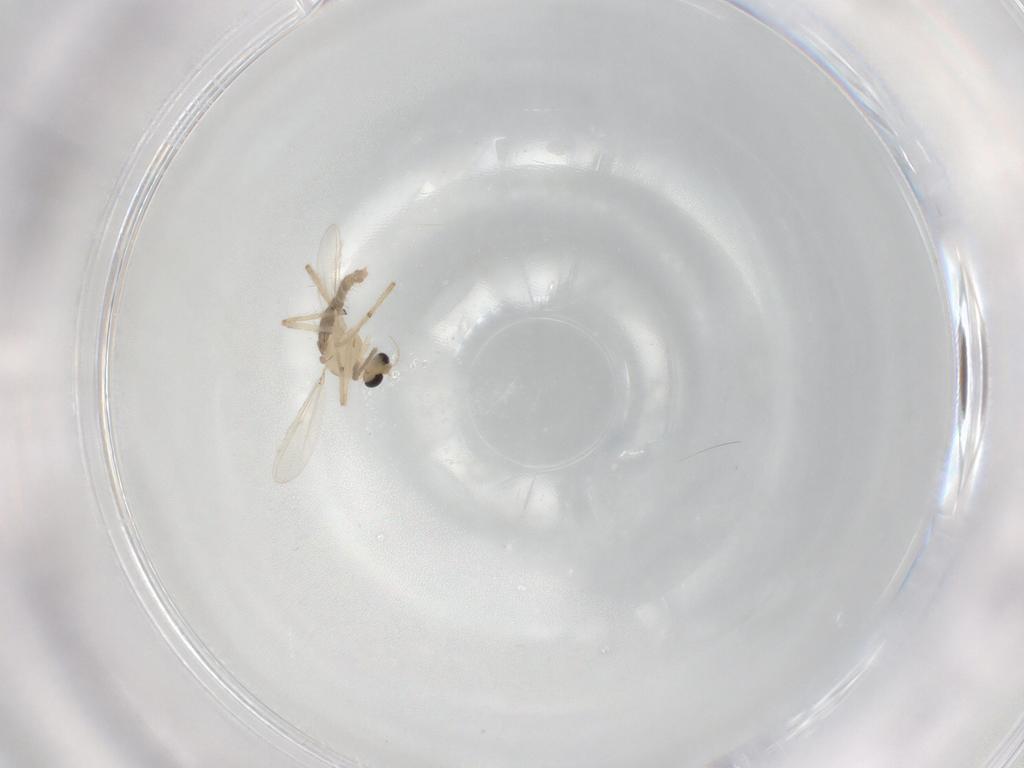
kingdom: Animalia
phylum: Arthropoda
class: Insecta
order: Diptera
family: Chironomidae
